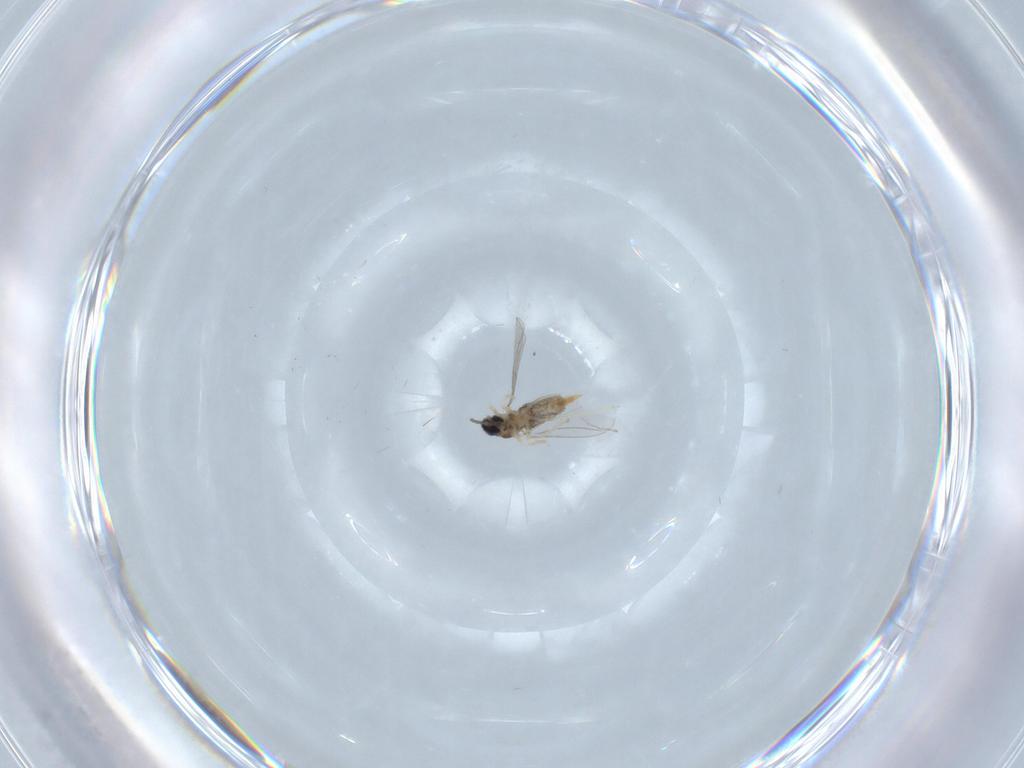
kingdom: Animalia
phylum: Arthropoda
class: Insecta
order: Diptera
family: Cecidomyiidae
